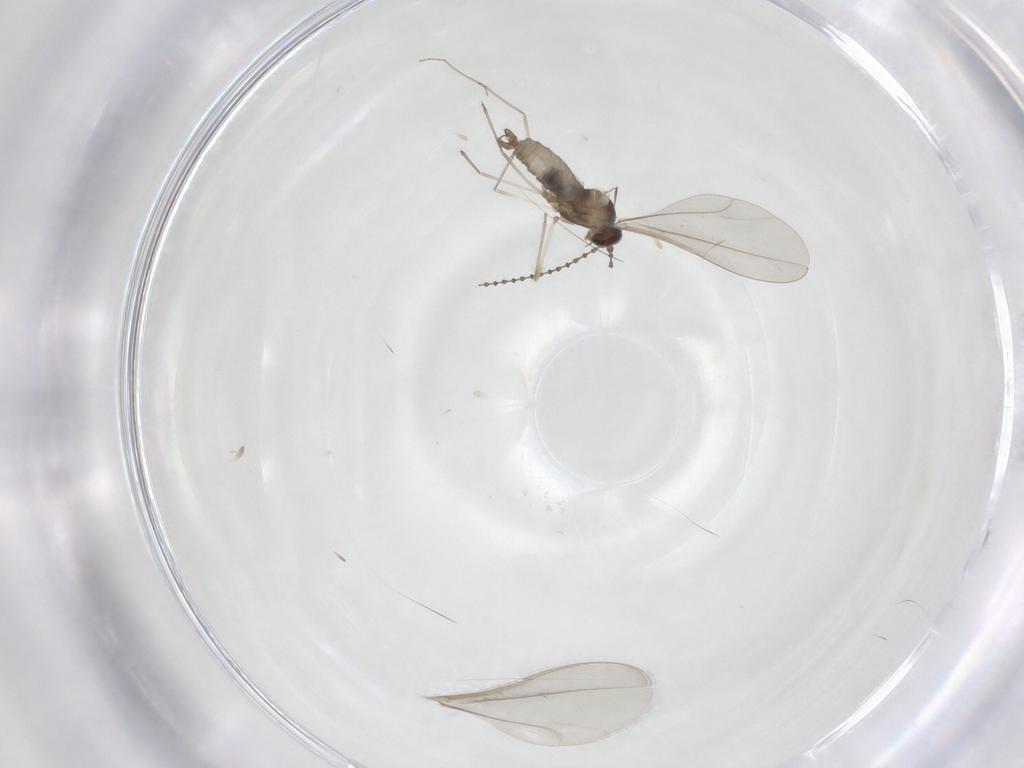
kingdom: Animalia
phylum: Arthropoda
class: Insecta
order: Diptera
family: Cecidomyiidae
